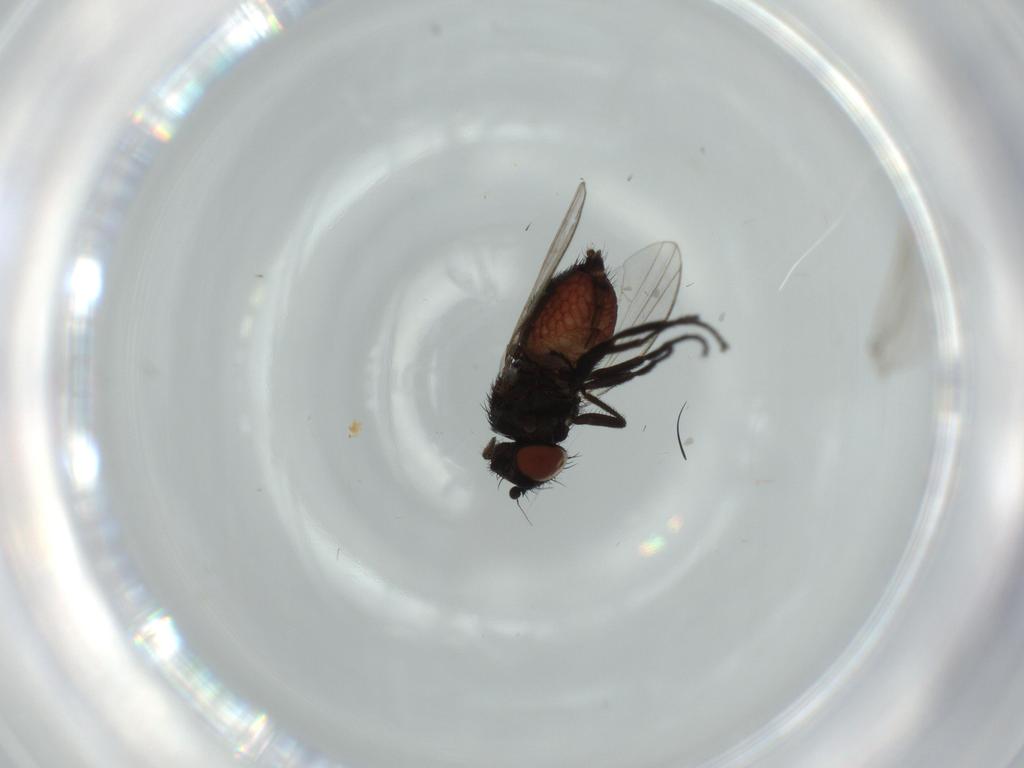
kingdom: Animalia
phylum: Arthropoda
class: Insecta
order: Diptera
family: Milichiidae
